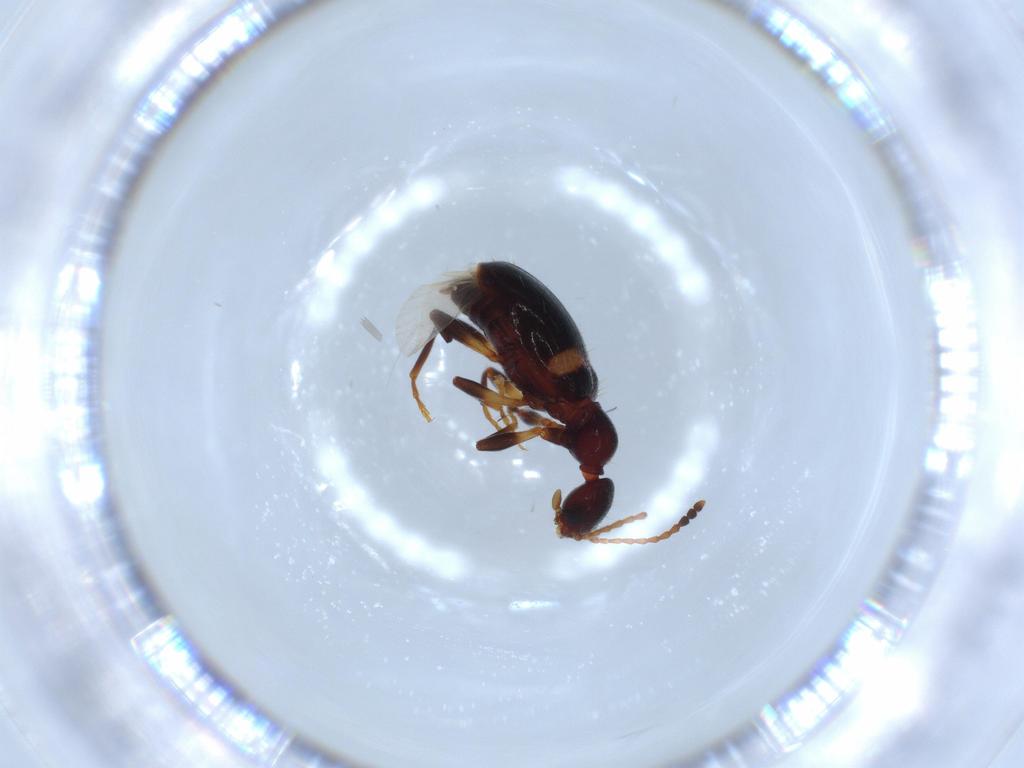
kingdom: Animalia
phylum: Arthropoda
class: Insecta
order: Coleoptera
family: Anthicidae
